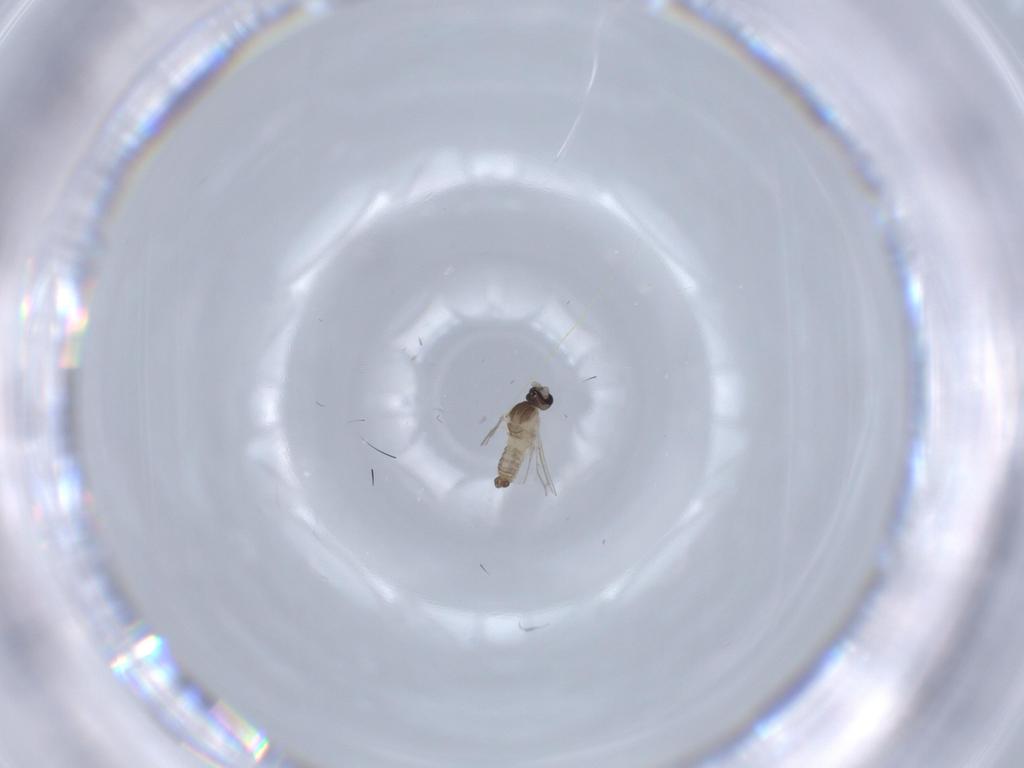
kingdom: Animalia
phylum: Arthropoda
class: Insecta
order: Diptera
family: Cecidomyiidae
